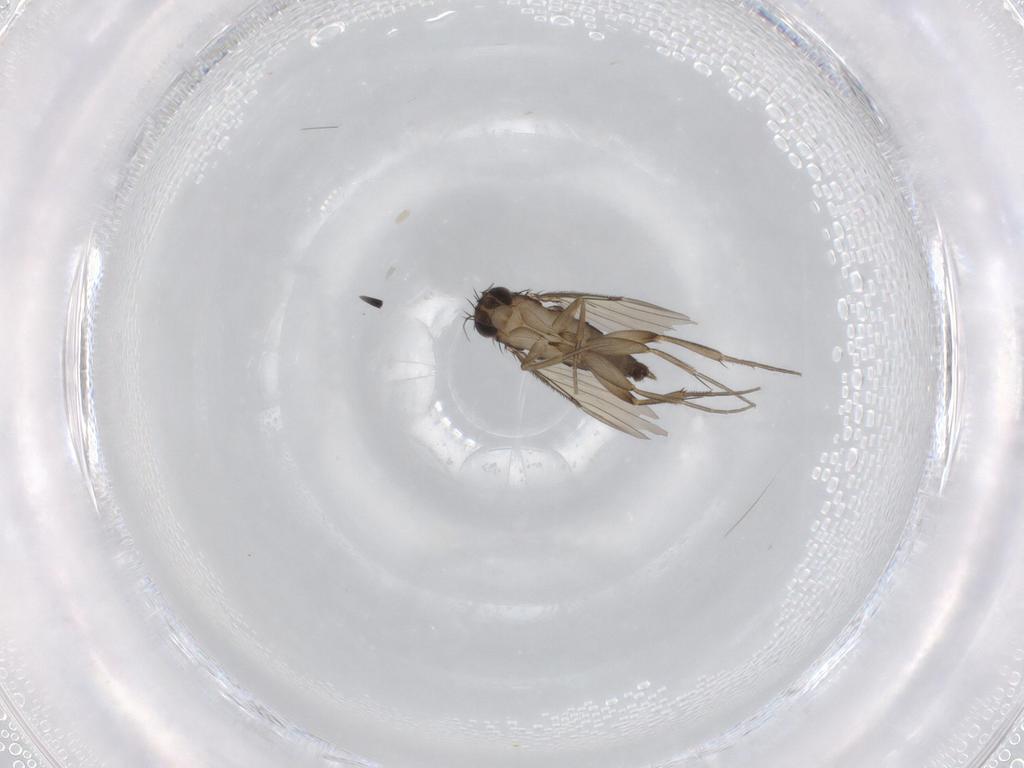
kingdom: Animalia
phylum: Arthropoda
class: Insecta
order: Diptera
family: Phoridae
